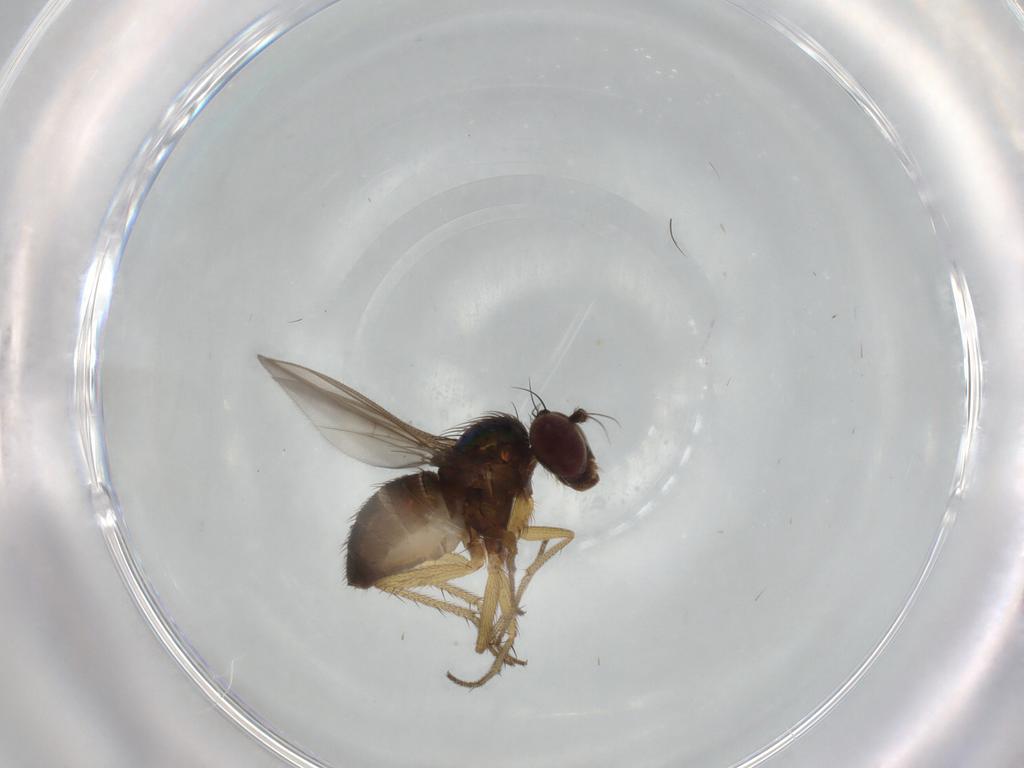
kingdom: Animalia
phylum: Arthropoda
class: Insecta
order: Diptera
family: Dolichopodidae
